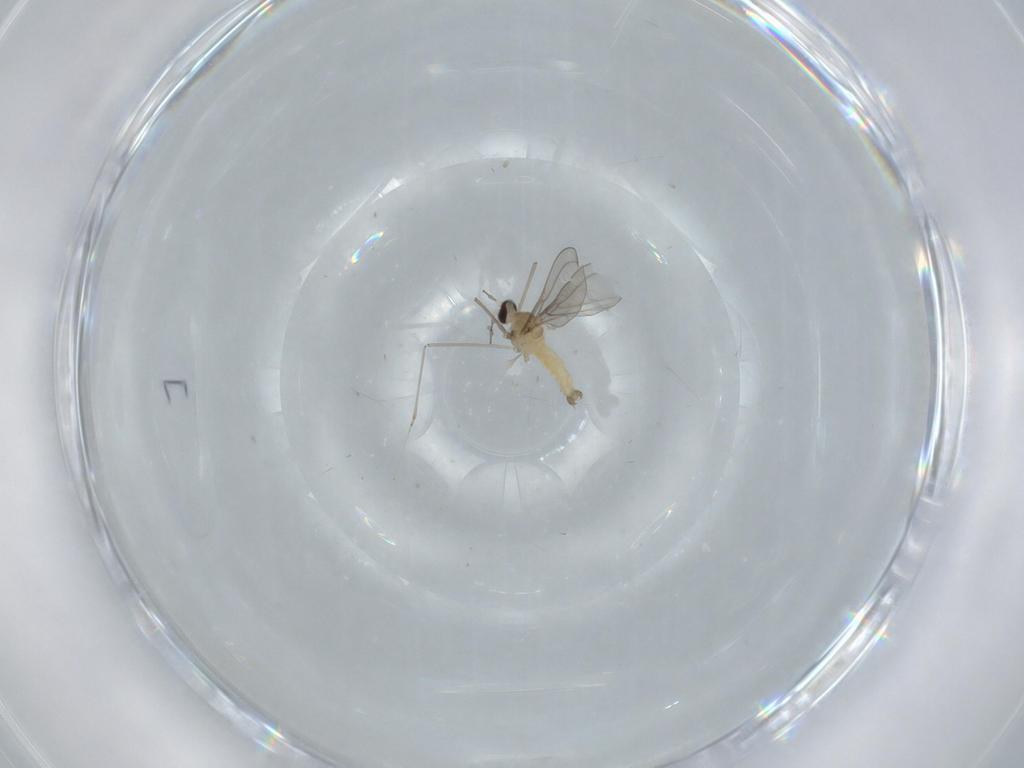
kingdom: Animalia
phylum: Arthropoda
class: Insecta
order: Diptera
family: Cecidomyiidae
